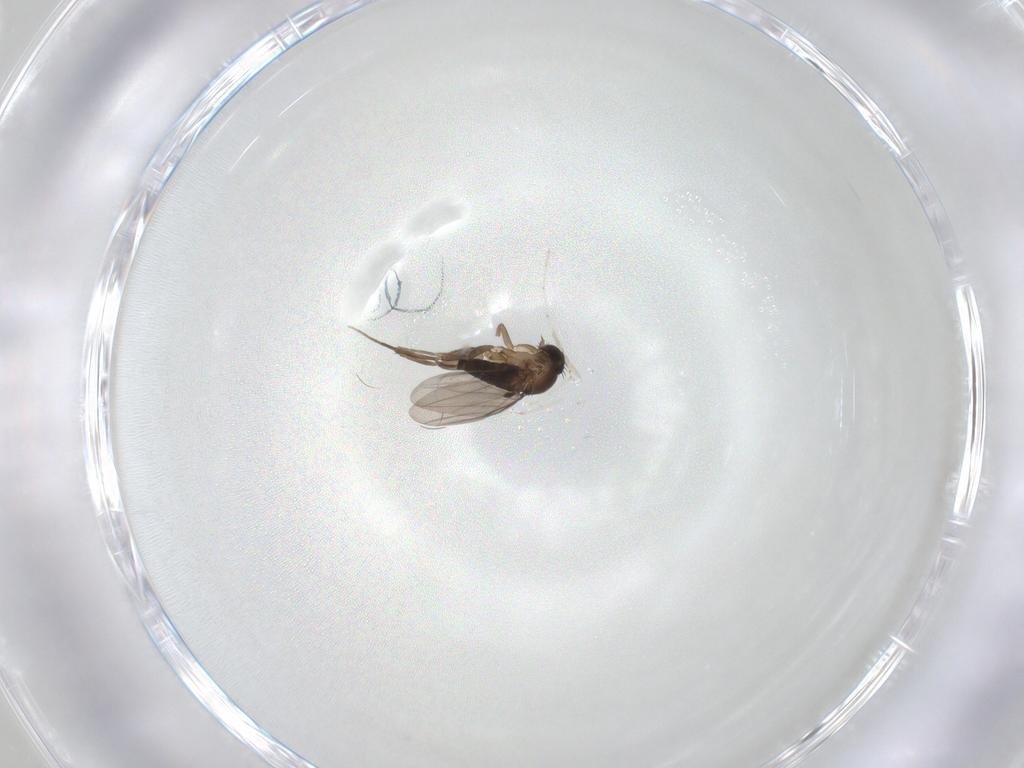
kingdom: Animalia
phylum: Arthropoda
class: Insecta
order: Diptera
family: Phoridae
